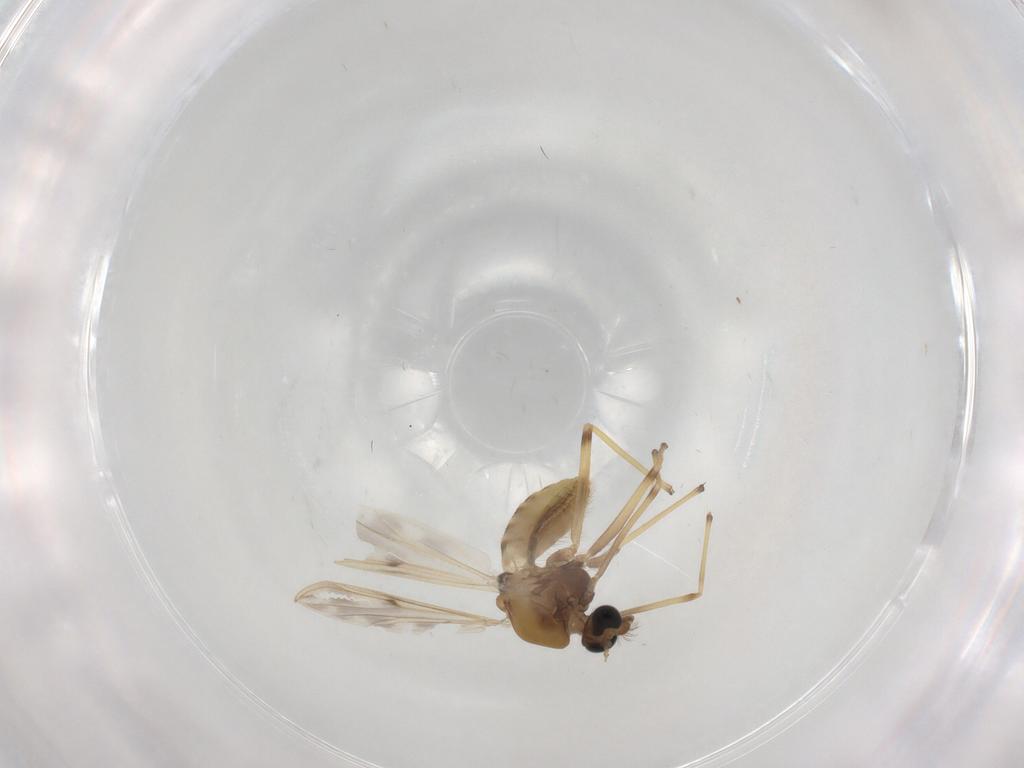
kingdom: Animalia
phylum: Arthropoda
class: Insecta
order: Diptera
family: Chironomidae
